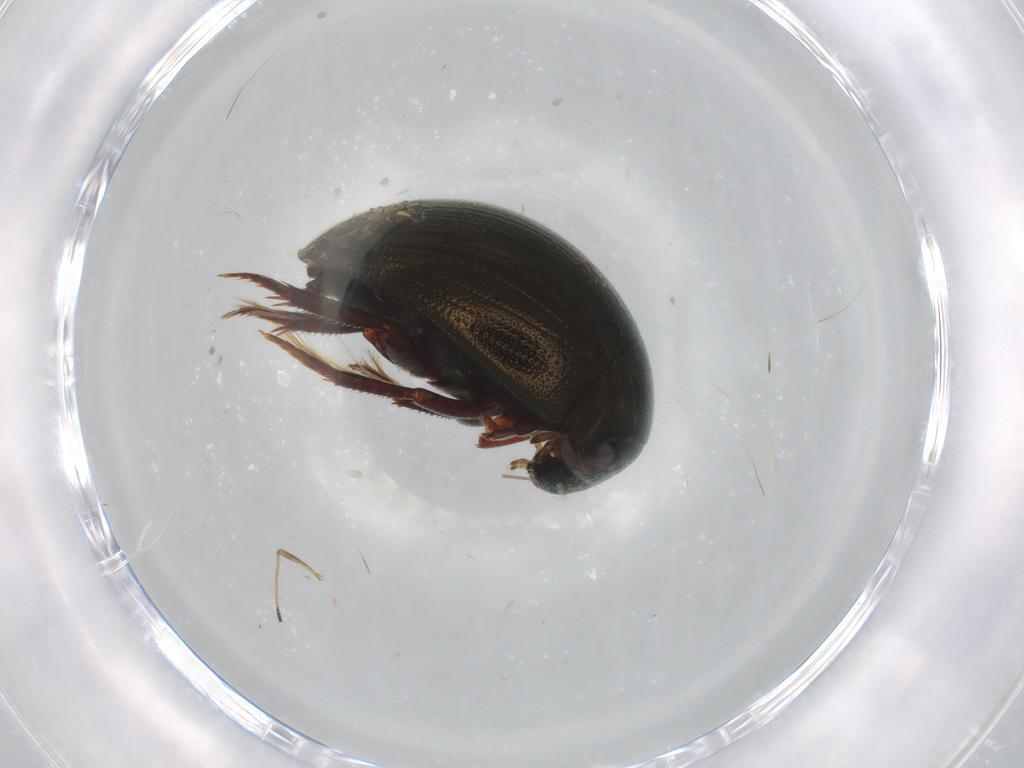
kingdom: Animalia
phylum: Arthropoda
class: Insecta
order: Coleoptera
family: Hydrophilidae
